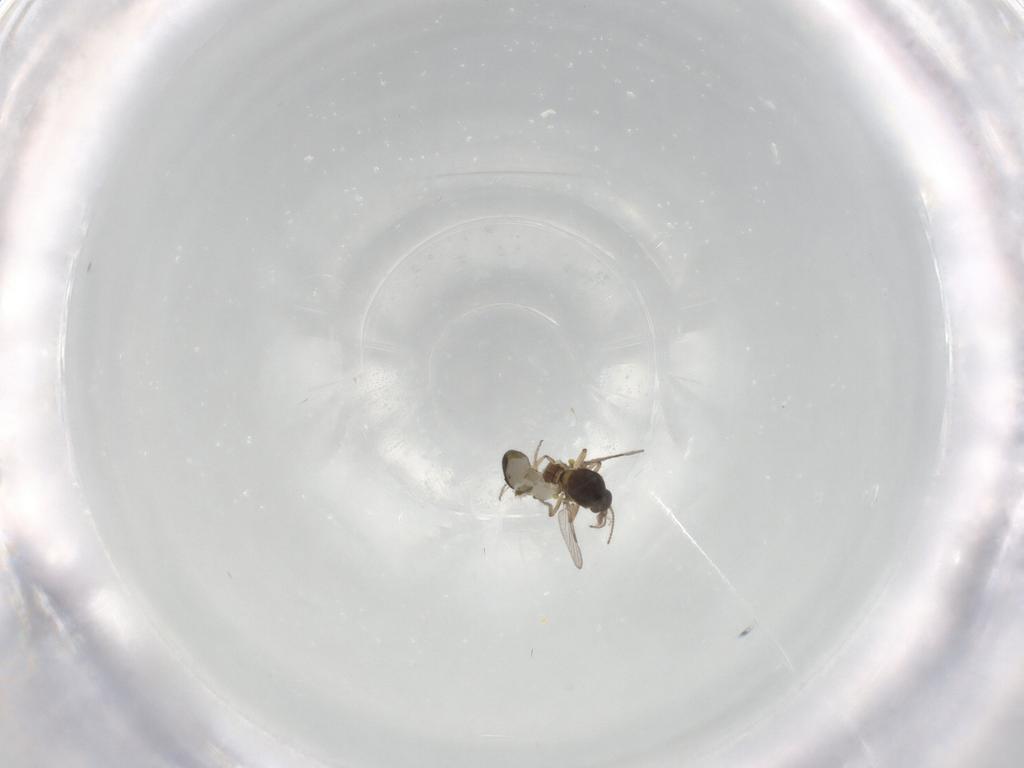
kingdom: Animalia
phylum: Arthropoda
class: Insecta
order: Diptera
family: Ceratopogonidae
